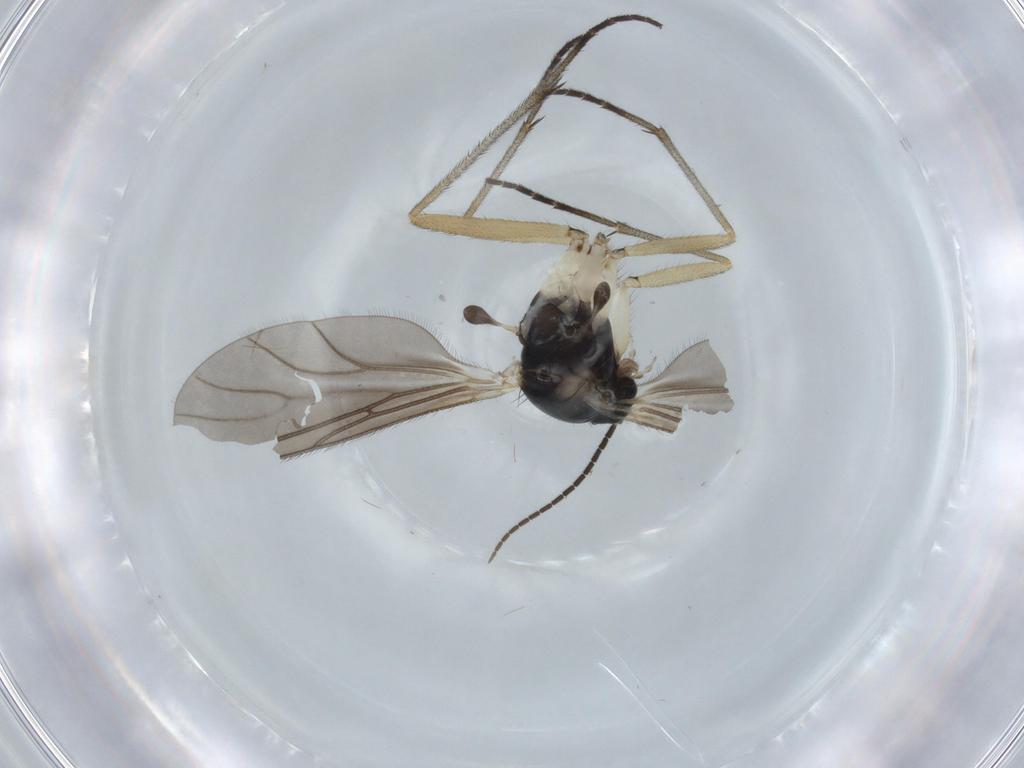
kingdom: Animalia
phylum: Arthropoda
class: Insecta
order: Diptera
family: Sciaridae
